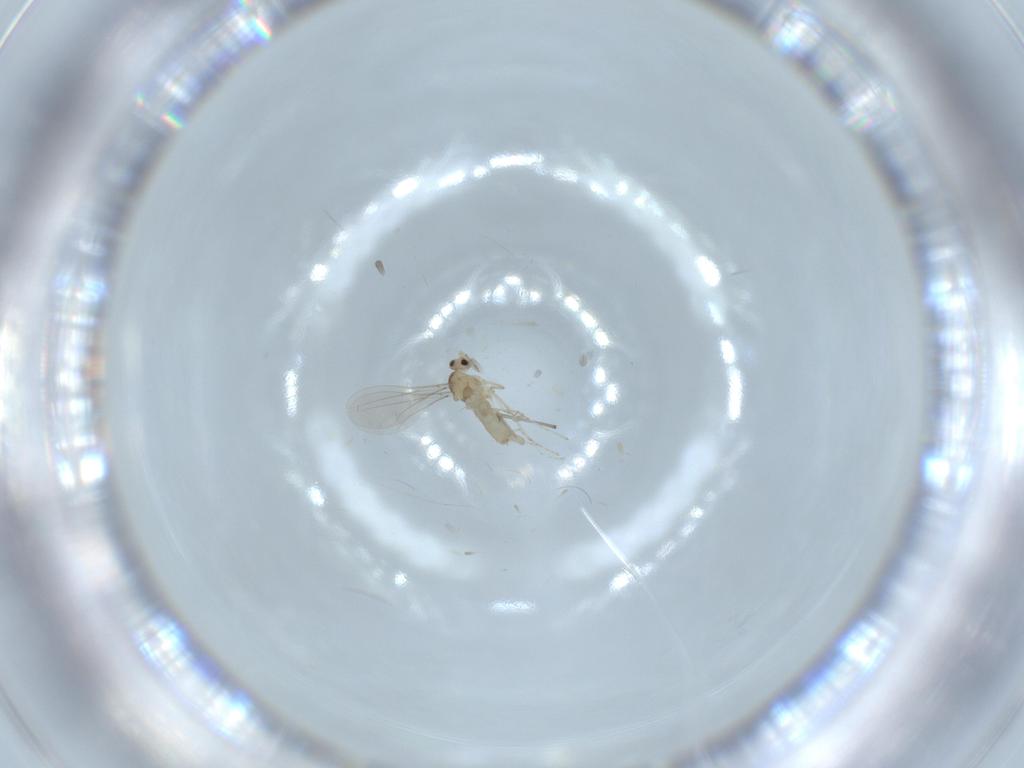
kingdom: Animalia
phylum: Arthropoda
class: Insecta
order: Diptera
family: Cecidomyiidae
